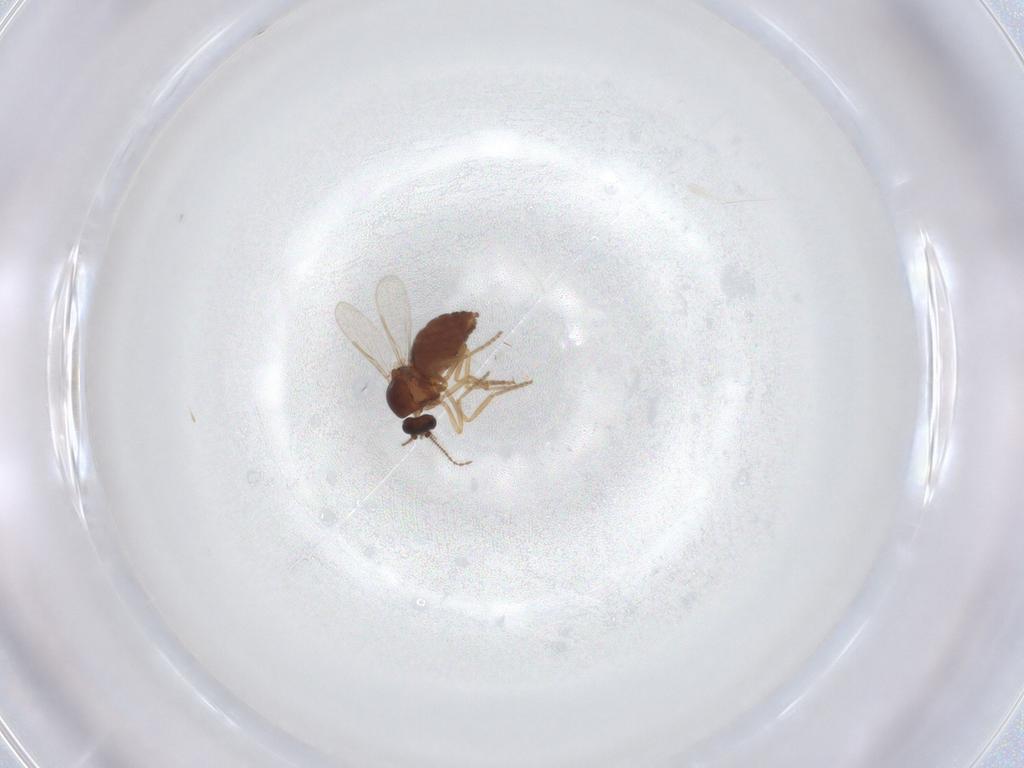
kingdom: Animalia
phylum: Arthropoda
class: Insecta
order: Diptera
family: Ceratopogonidae
